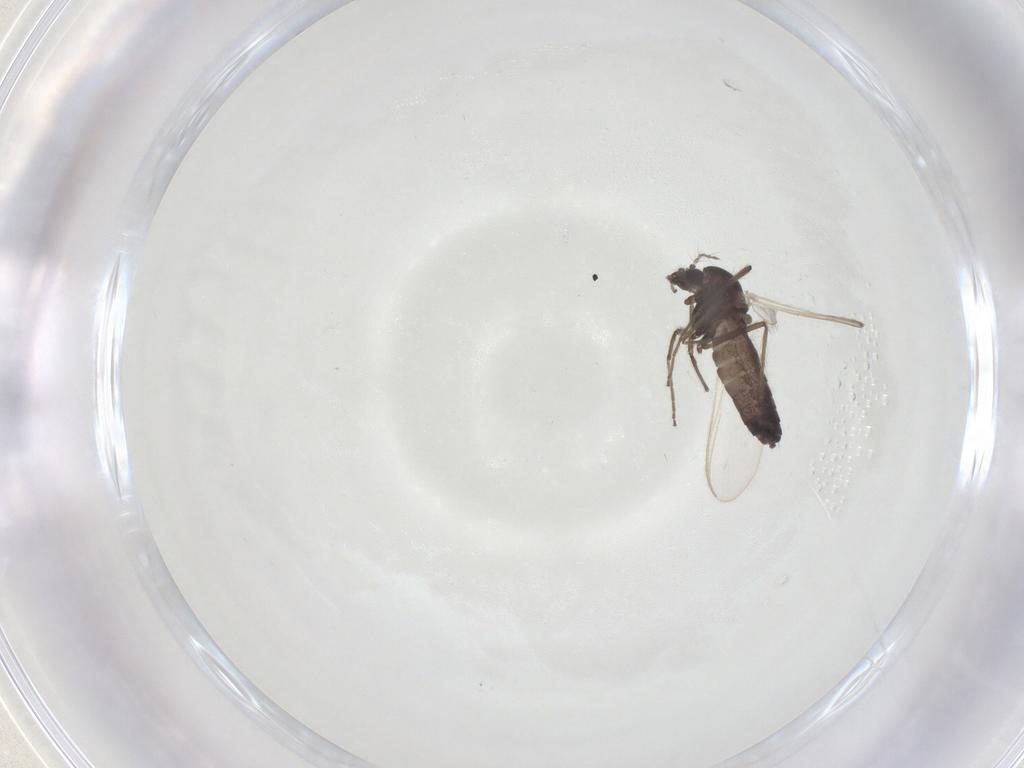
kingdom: Animalia
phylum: Arthropoda
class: Insecta
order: Diptera
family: Chironomidae
